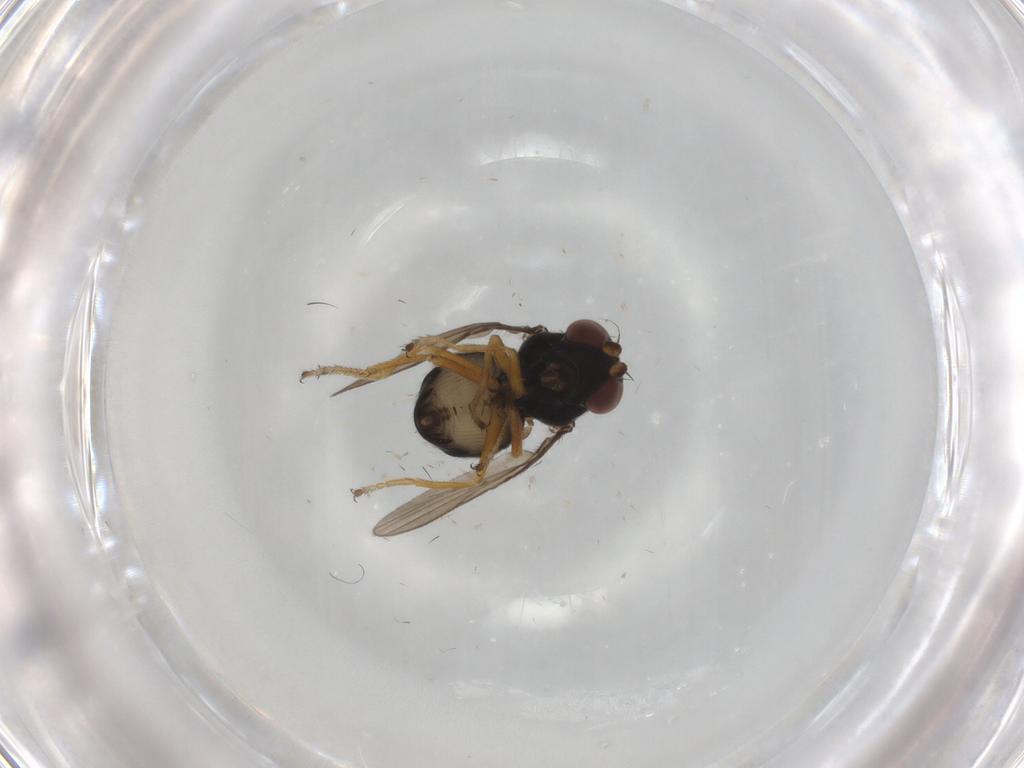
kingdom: Animalia
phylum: Arthropoda
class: Insecta
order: Diptera
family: Ephydridae
